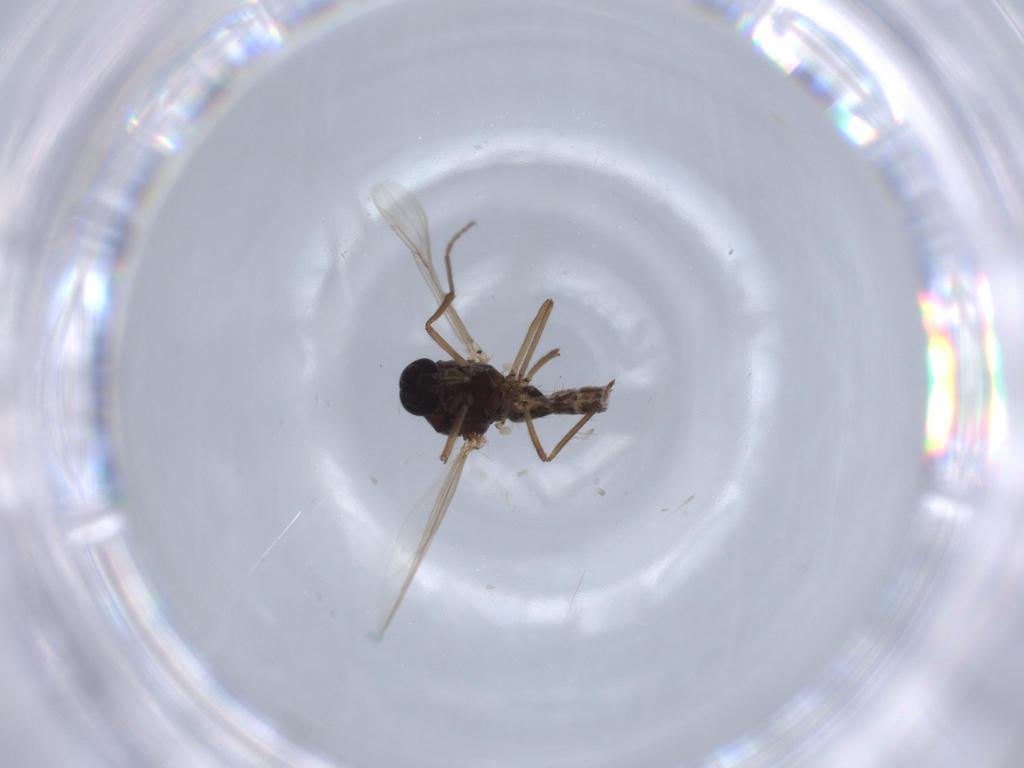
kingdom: Animalia
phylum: Arthropoda
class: Insecta
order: Diptera
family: Ceratopogonidae
